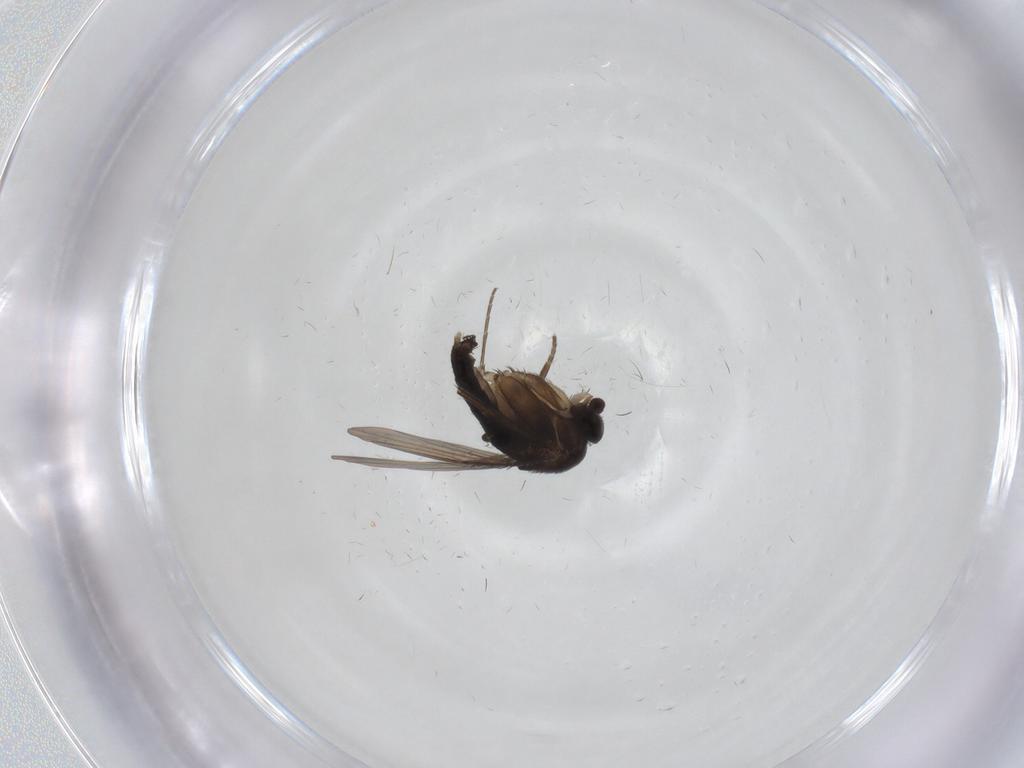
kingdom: Animalia
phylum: Arthropoda
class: Insecta
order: Diptera
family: Phoridae
